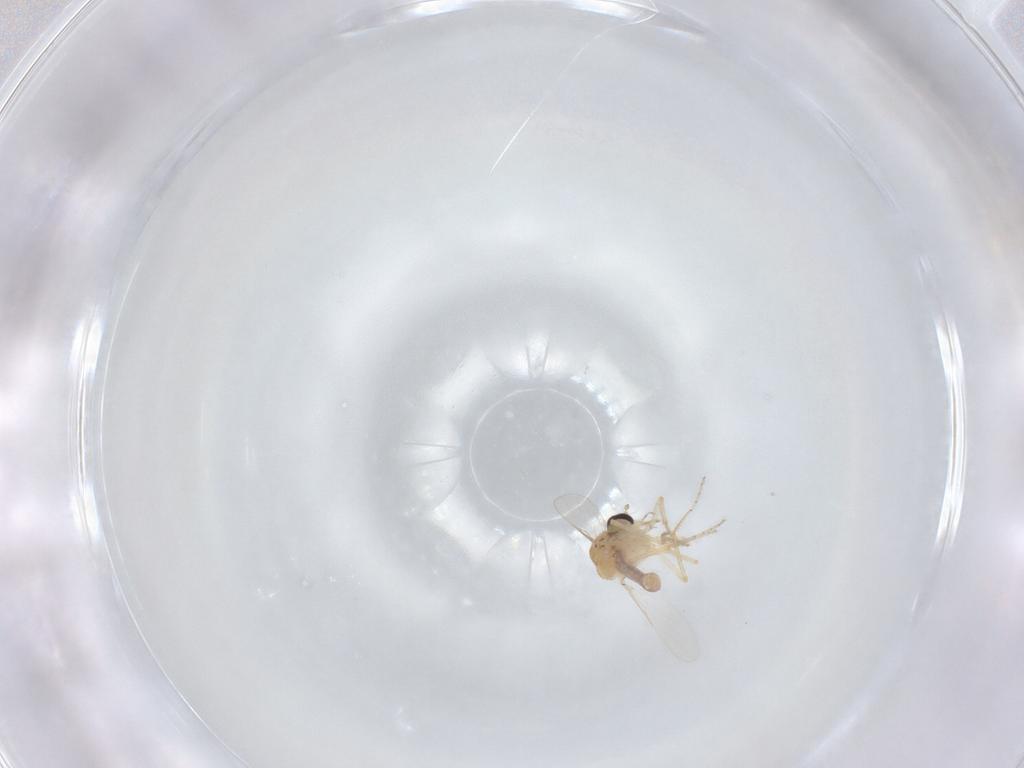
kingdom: Animalia
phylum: Arthropoda
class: Insecta
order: Diptera
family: Ceratopogonidae
